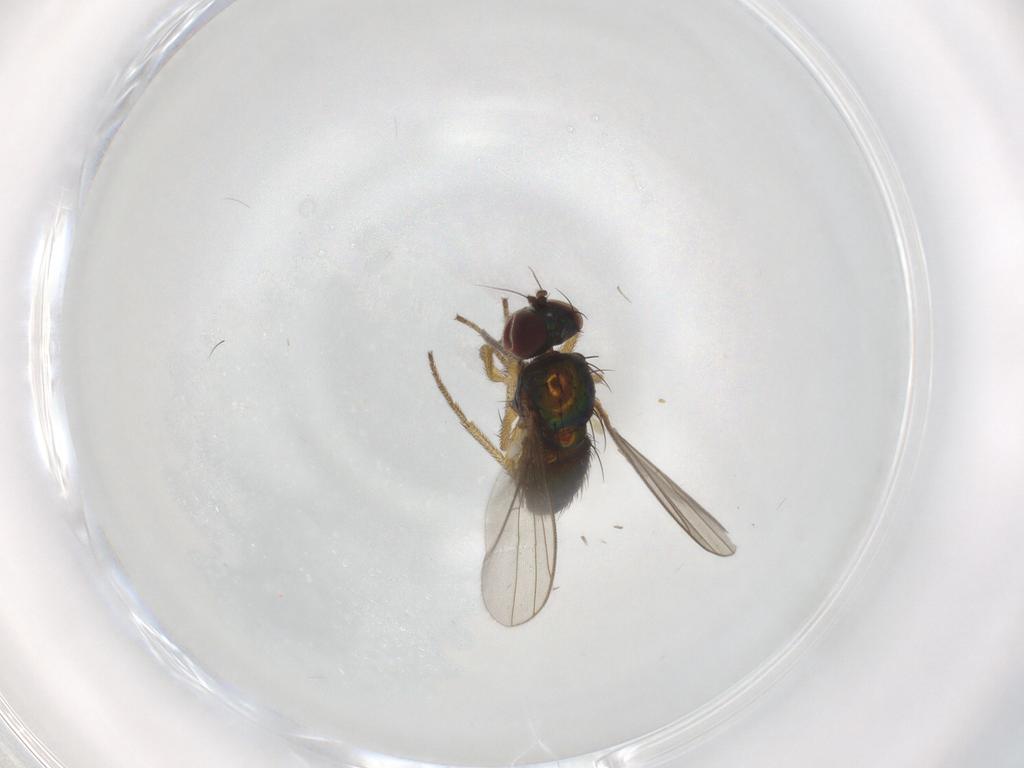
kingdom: Animalia
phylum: Arthropoda
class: Insecta
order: Diptera
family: Dolichopodidae
